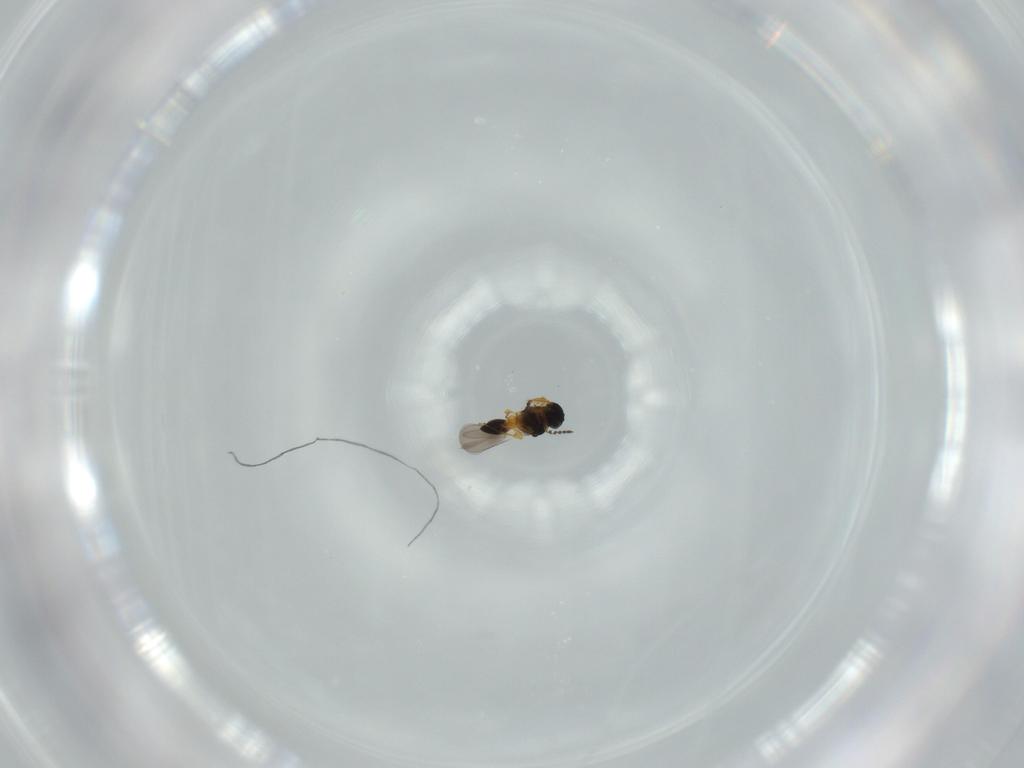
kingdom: Animalia
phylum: Arthropoda
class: Insecta
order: Hymenoptera
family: Platygastridae
